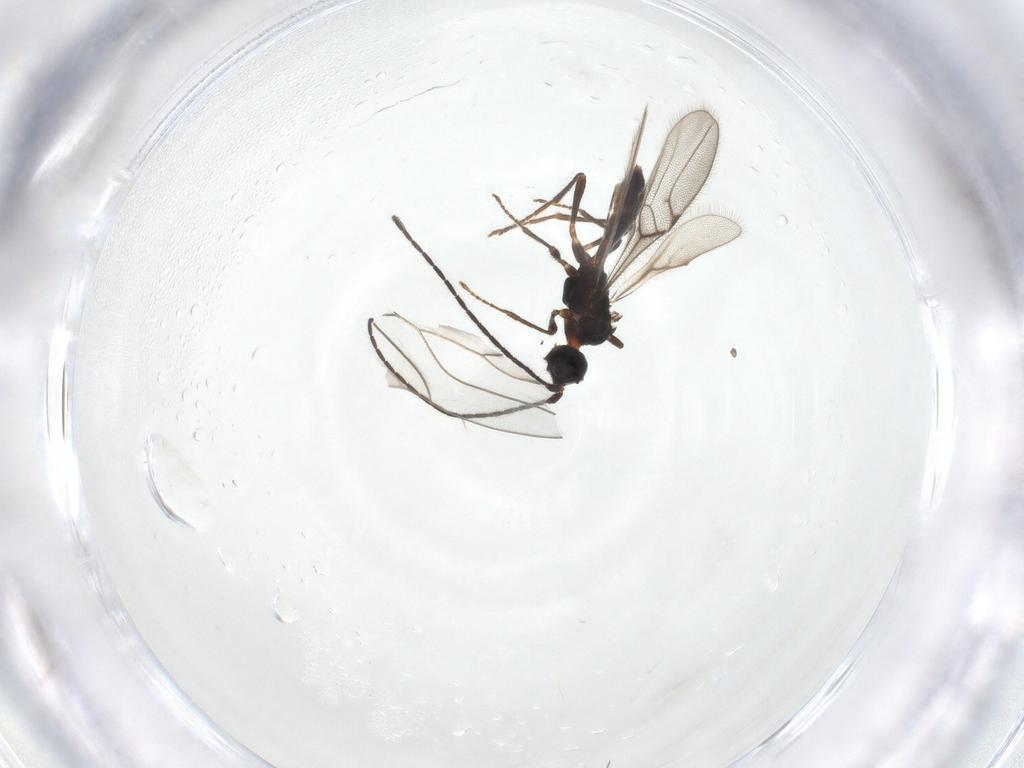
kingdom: Animalia
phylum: Arthropoda
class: Insecta
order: Hymenoptera
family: Braconidae
